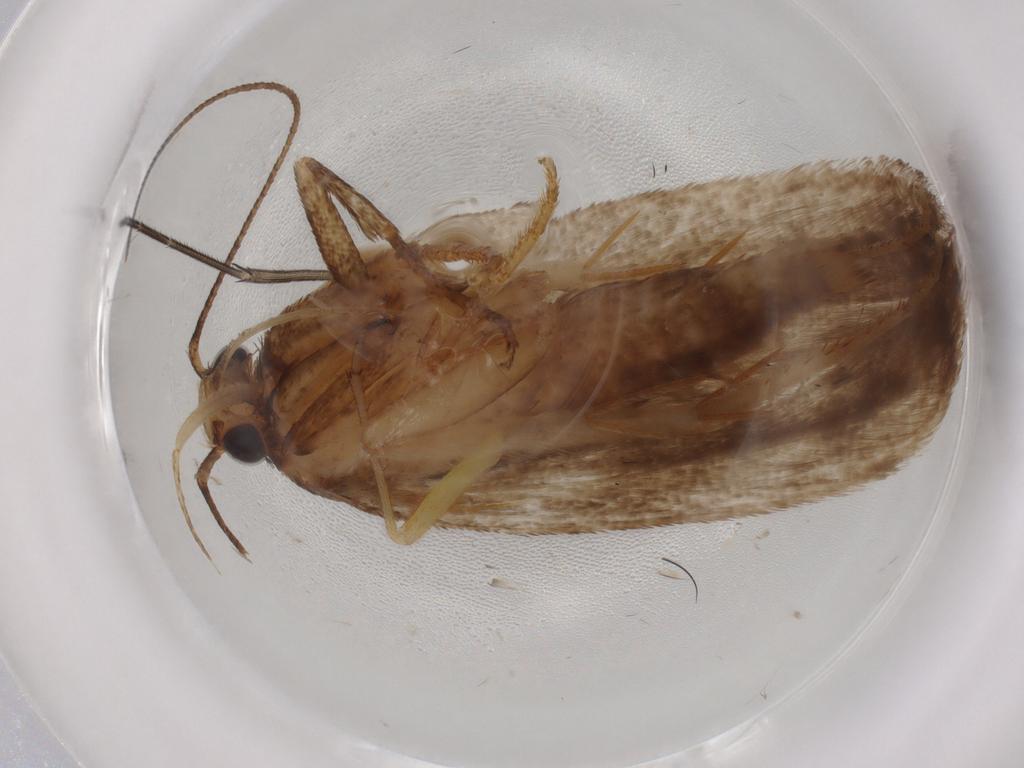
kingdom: Animalia
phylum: Arthropoda
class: Insecta
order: Lepidoptera
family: Gelechiidae
